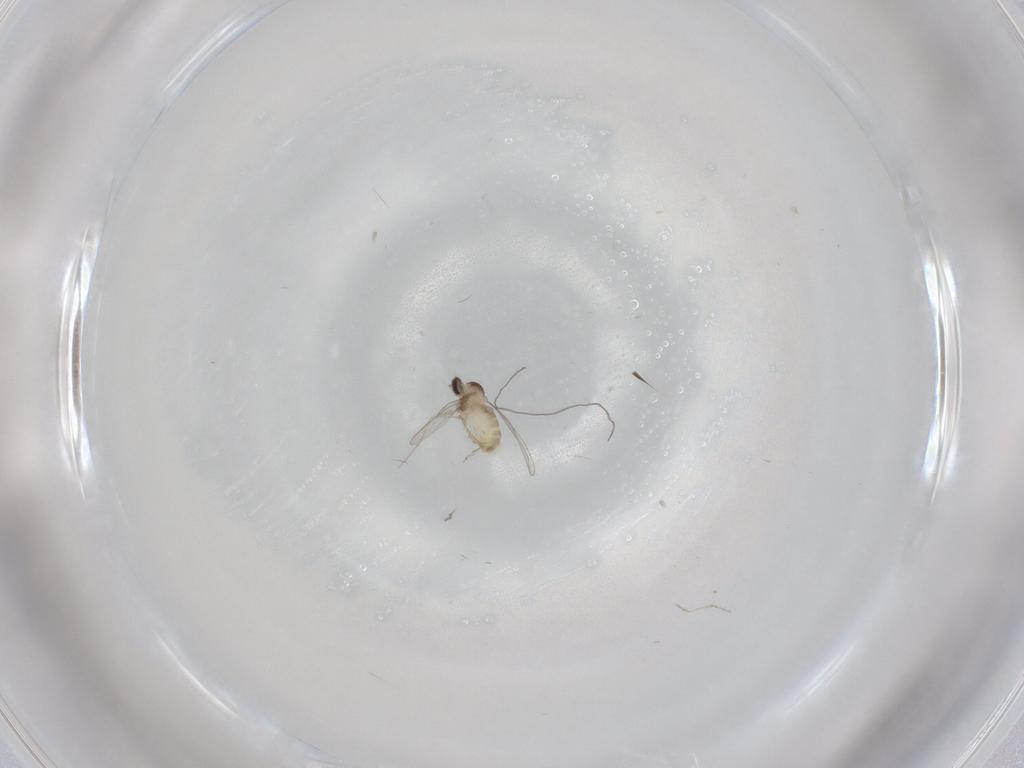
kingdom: Animalia
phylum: Arthropoda
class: Insecta
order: Diptera
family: Cecidomyiidae
